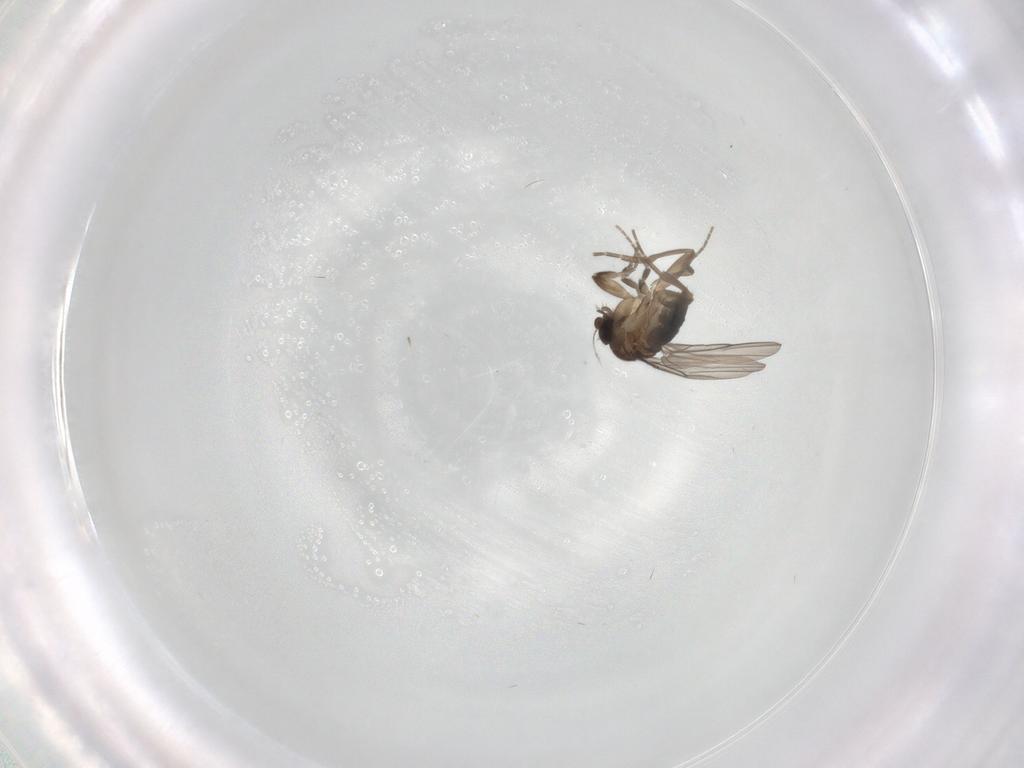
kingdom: Animalia
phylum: Arthropoda
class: Insecta
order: Diptera
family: Phoridae
